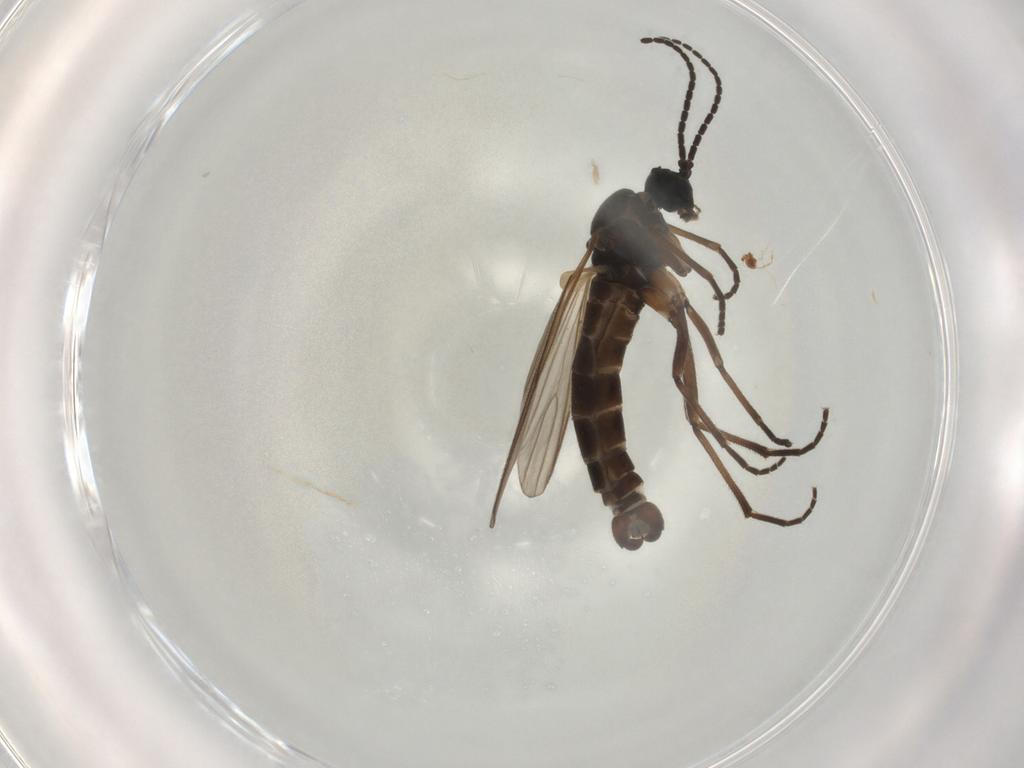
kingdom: Animalia
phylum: Arthropoda
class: Insecta
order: Diptera
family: Sciaridae
